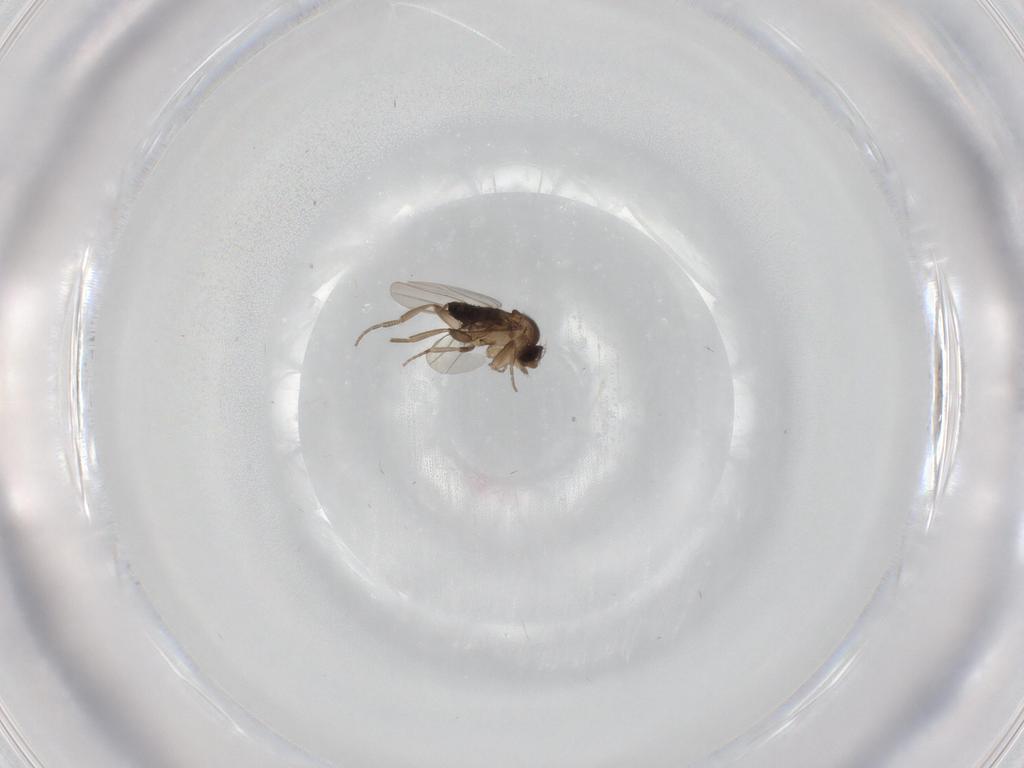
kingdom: Animalia
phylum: Arthropoda
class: Insecta
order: Diptera
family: Phoridae
